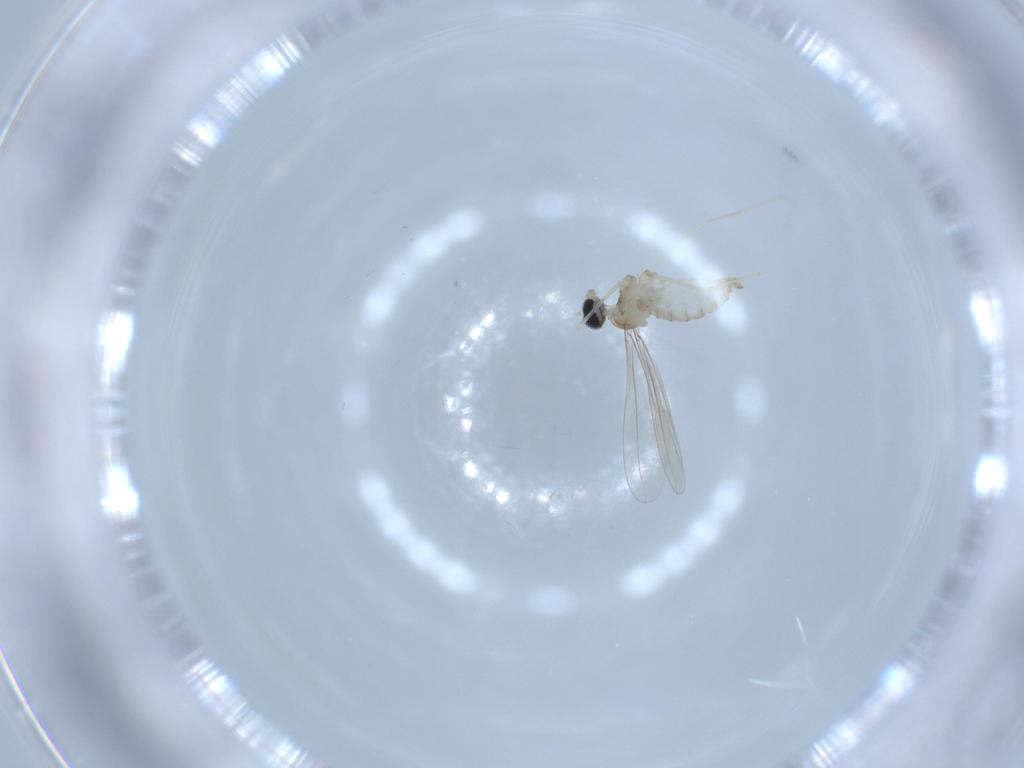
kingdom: Animalia
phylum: Arthropoda
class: Insecta
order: Diptera
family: Cecidomyiidae
